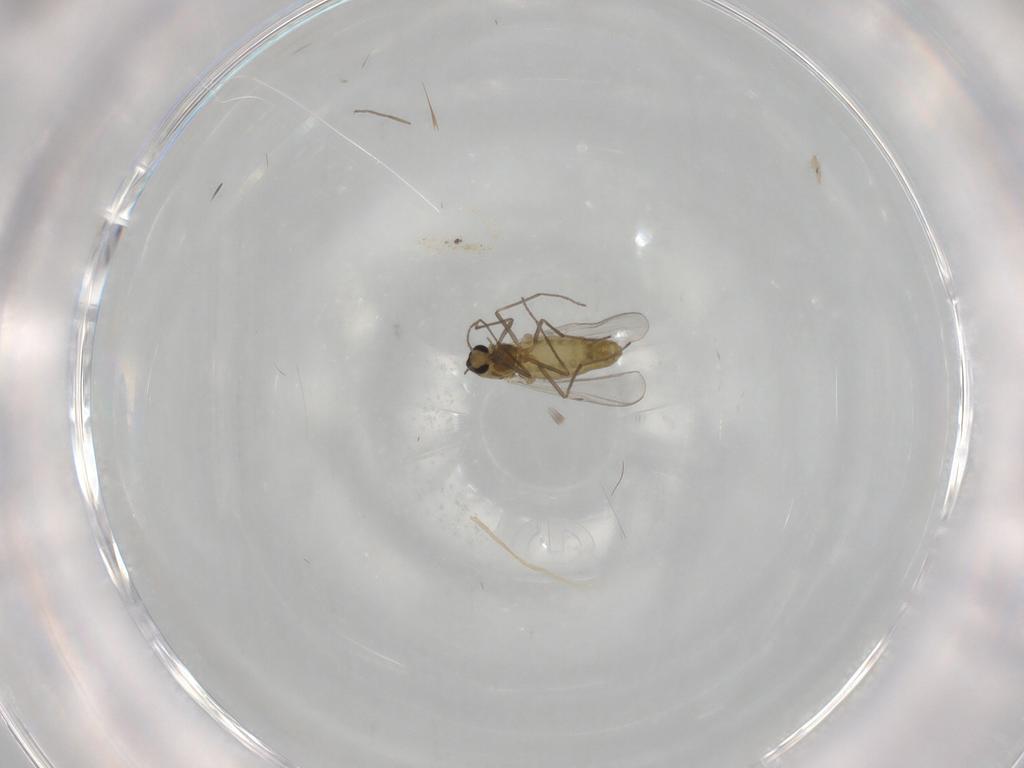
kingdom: Animalia
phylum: Arthropoda
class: Insecta
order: Diptera
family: Chironomidae
